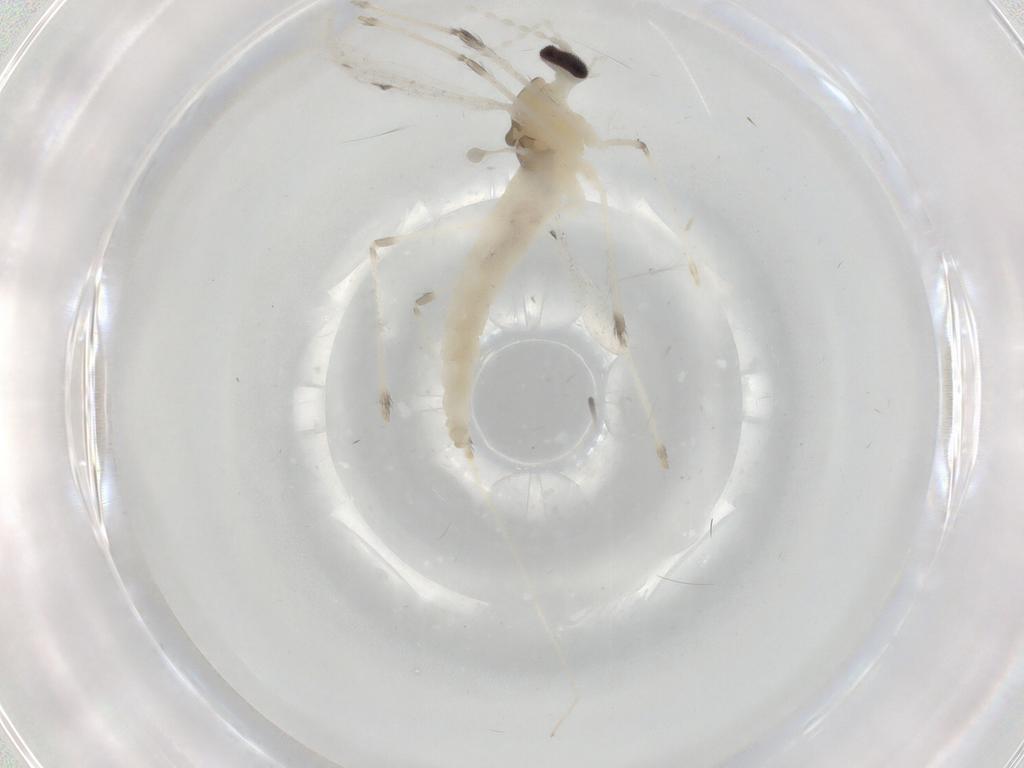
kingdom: Animalia
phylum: Arthropoda
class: Insecta
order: Diptera
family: Cecidomyiidae
